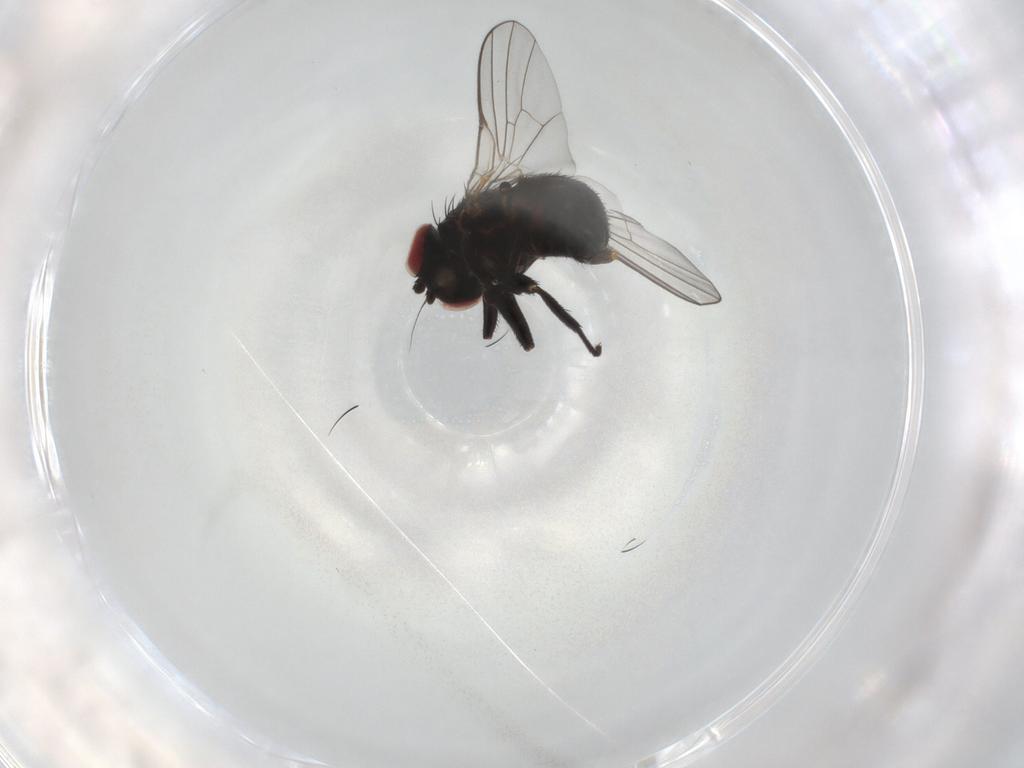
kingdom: Animalia
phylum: Arthropoda
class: Insecta
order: Diptera
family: Agromyzidae
